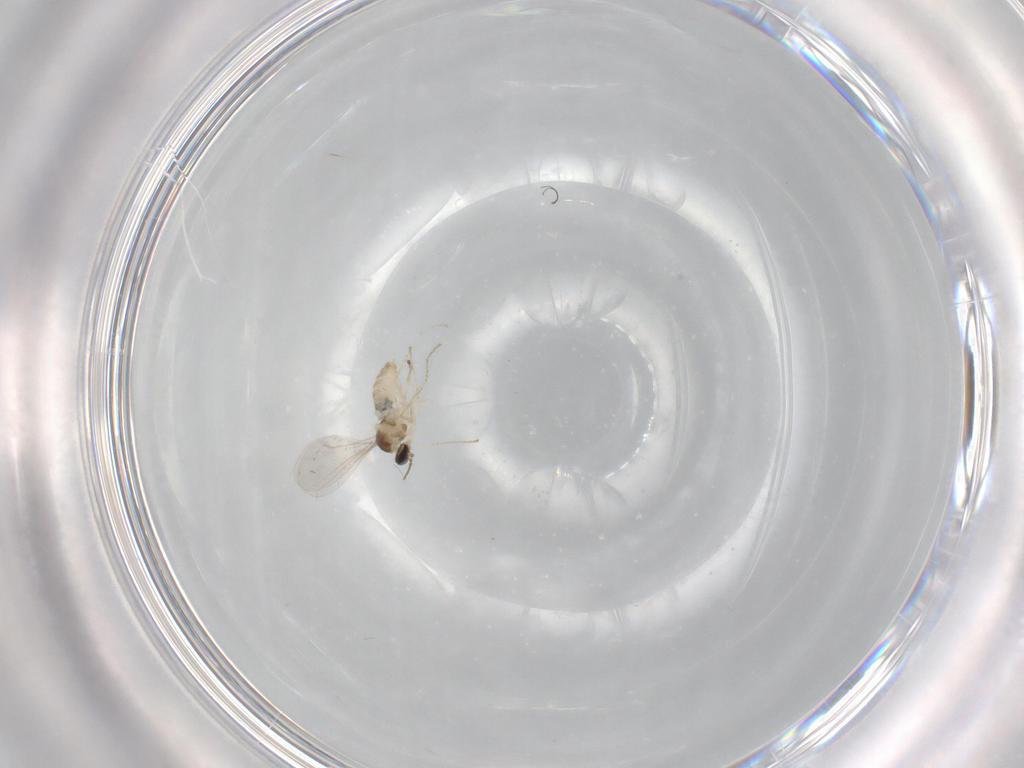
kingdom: Animalia
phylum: Arthropoda
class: Insecta
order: Diptera
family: Cecidomyiidae
